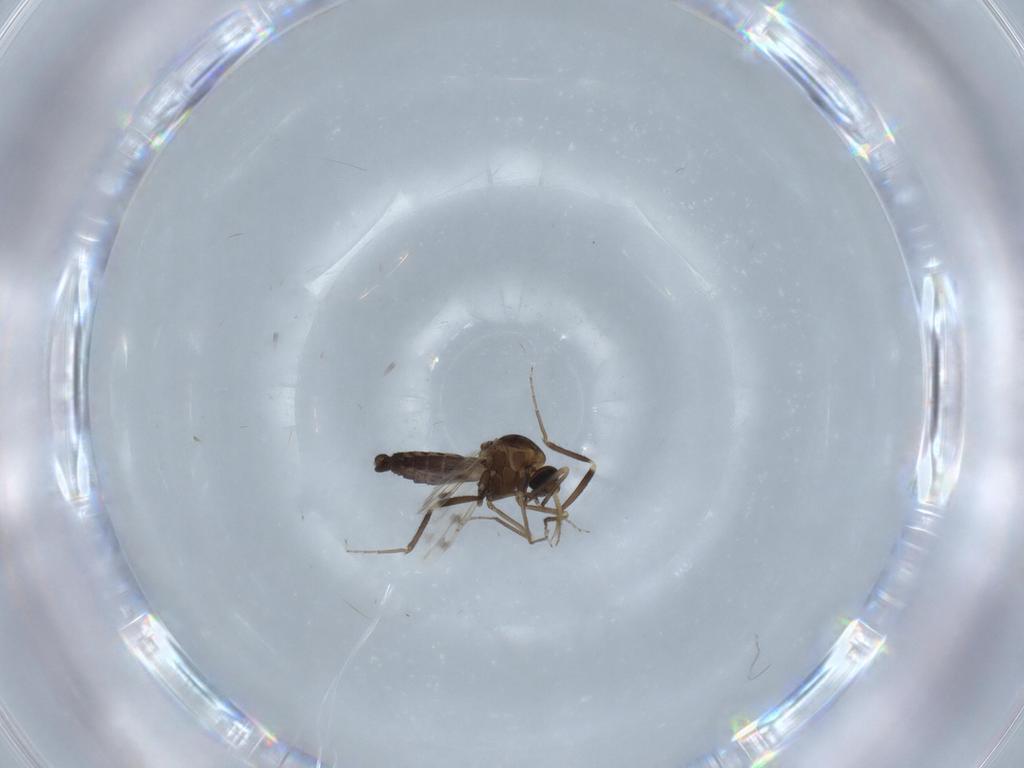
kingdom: Animalia
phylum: Arthropoda
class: Insecta
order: Diptera
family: Ceratopogonidae
